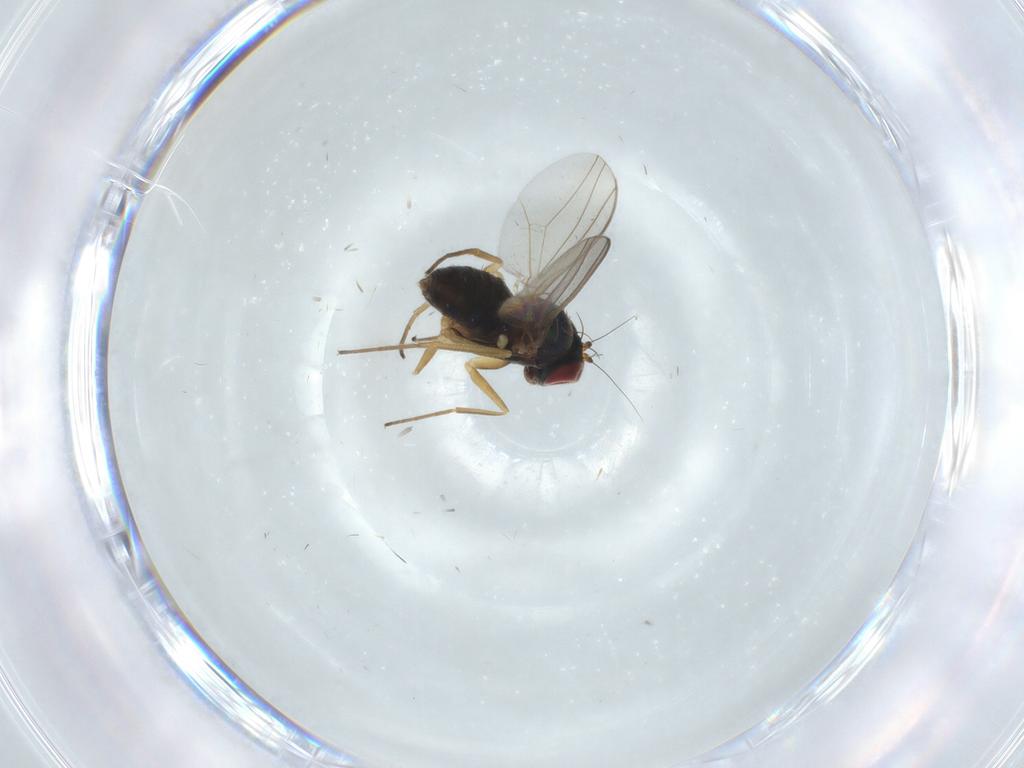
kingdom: Animalia
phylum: Arthropoda
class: Insecta
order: Diptera
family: Dolichopodidae
